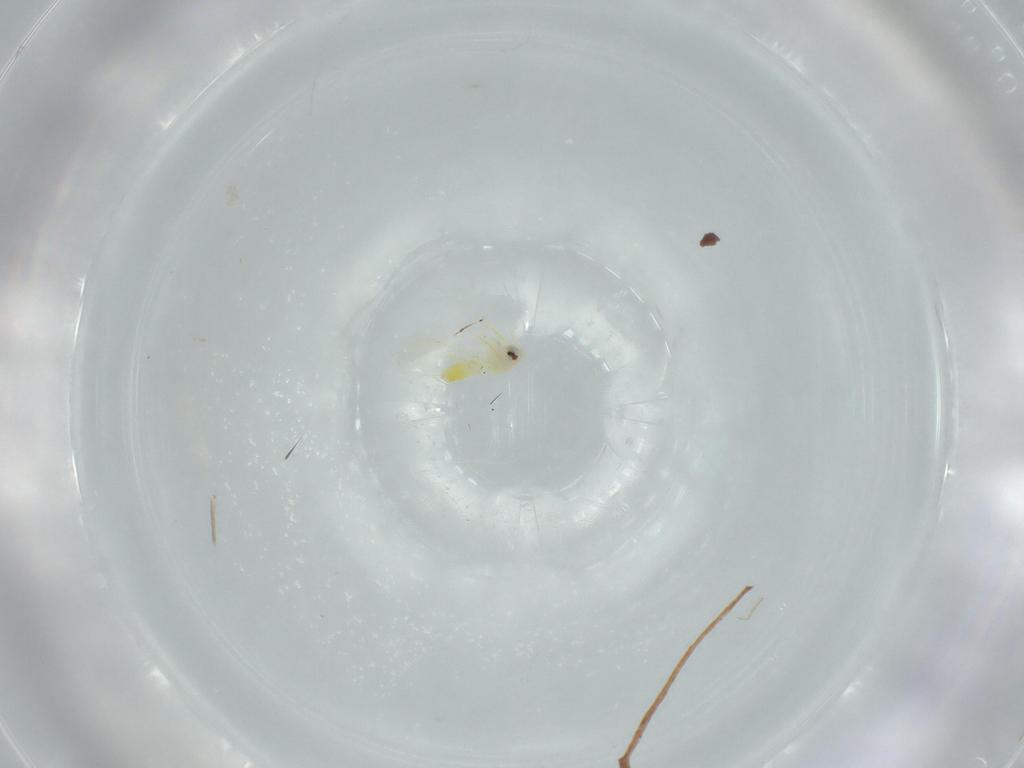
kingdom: Animalia
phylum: Arthropoda
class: Insecta
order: Hemiptera
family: Aleyrodidae
